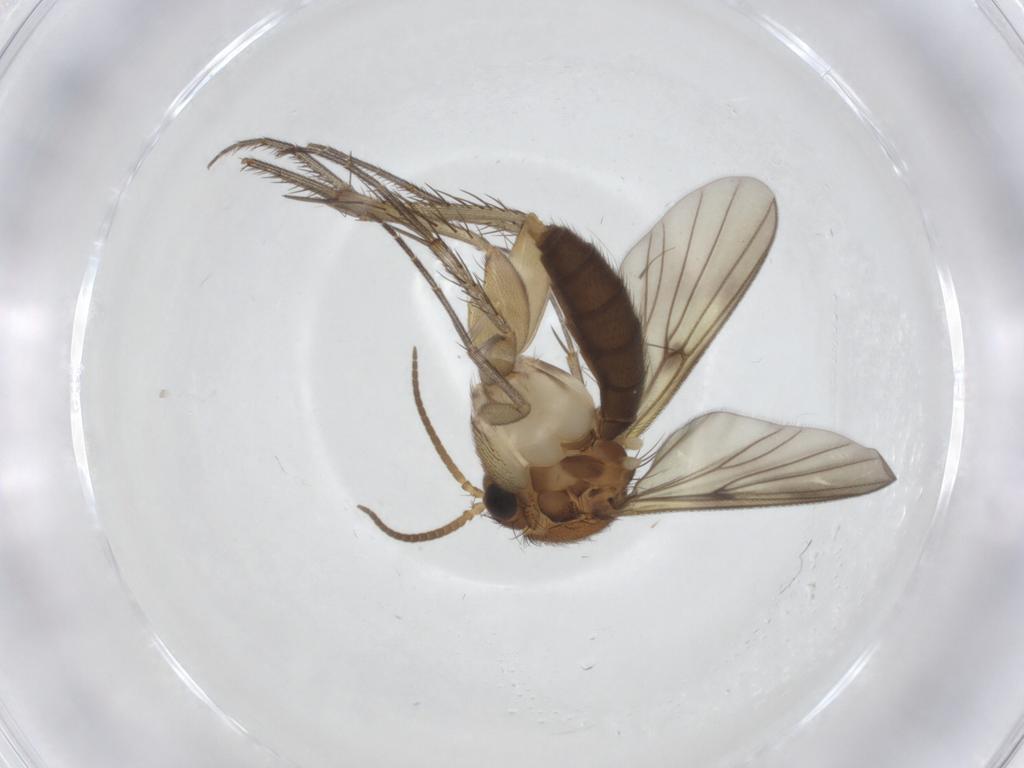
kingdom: Animalia
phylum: Arthropoda
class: Insecta
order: Diptera
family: Cecidomyiidae
